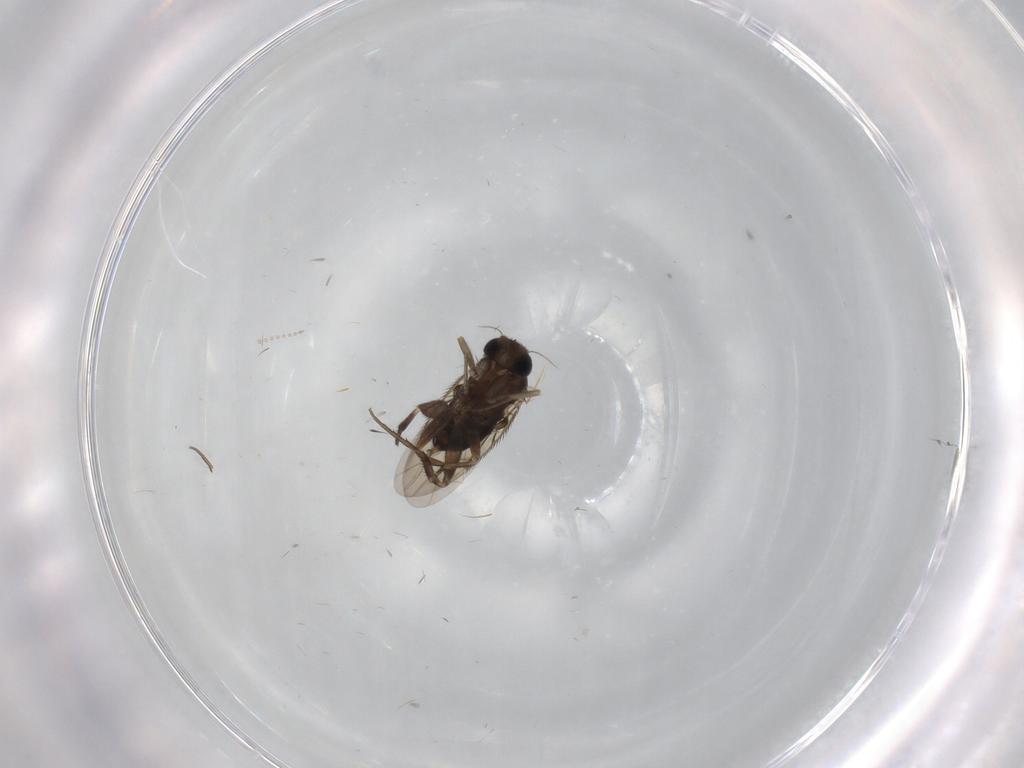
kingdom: Animalia
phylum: Arthropoda
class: Insecta
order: Diptera
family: Phoridae
